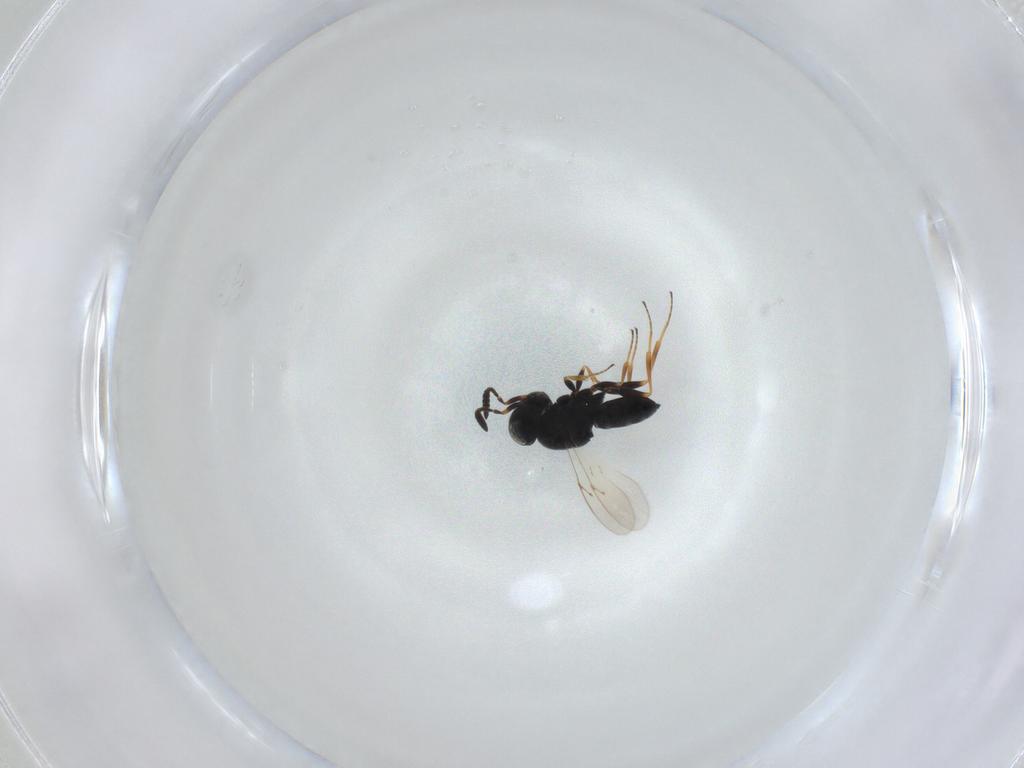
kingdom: Animalia
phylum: Arthropoda
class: Insecta
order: Hymenoptera
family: Scelionidae
